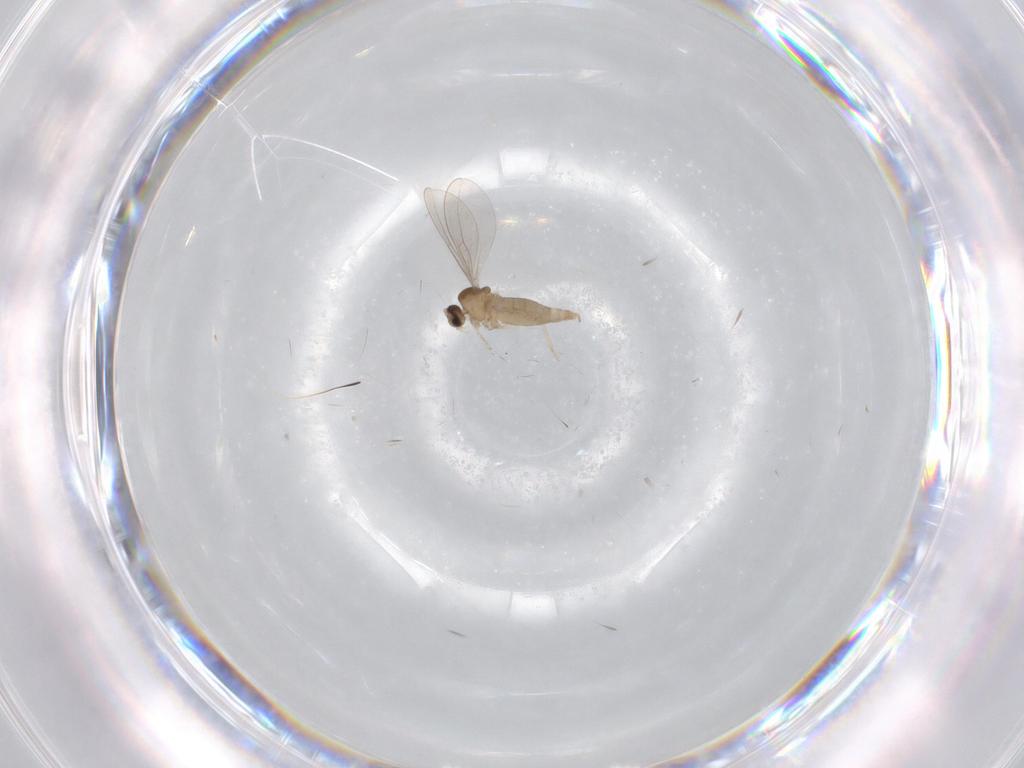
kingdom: Animalia
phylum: Arthropoda
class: Insecta
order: Diptera
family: Cecidomyiidae
